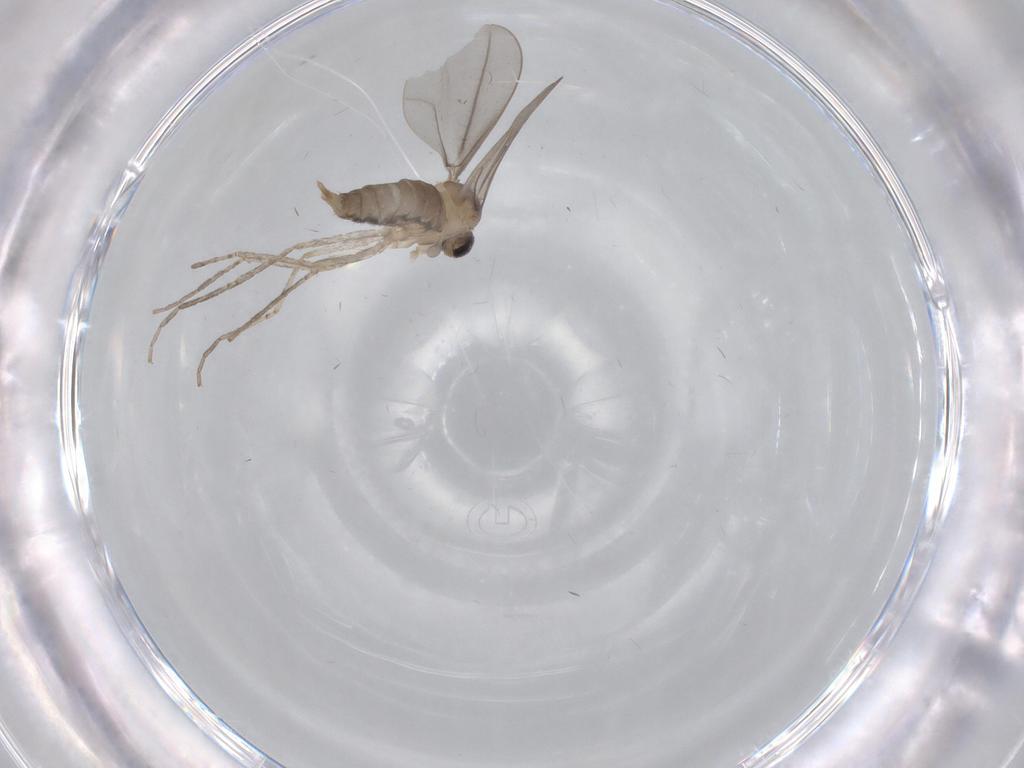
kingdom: Animalia
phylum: Arthropoda
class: Insecta
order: Diptera
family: Cecidomyiidae
